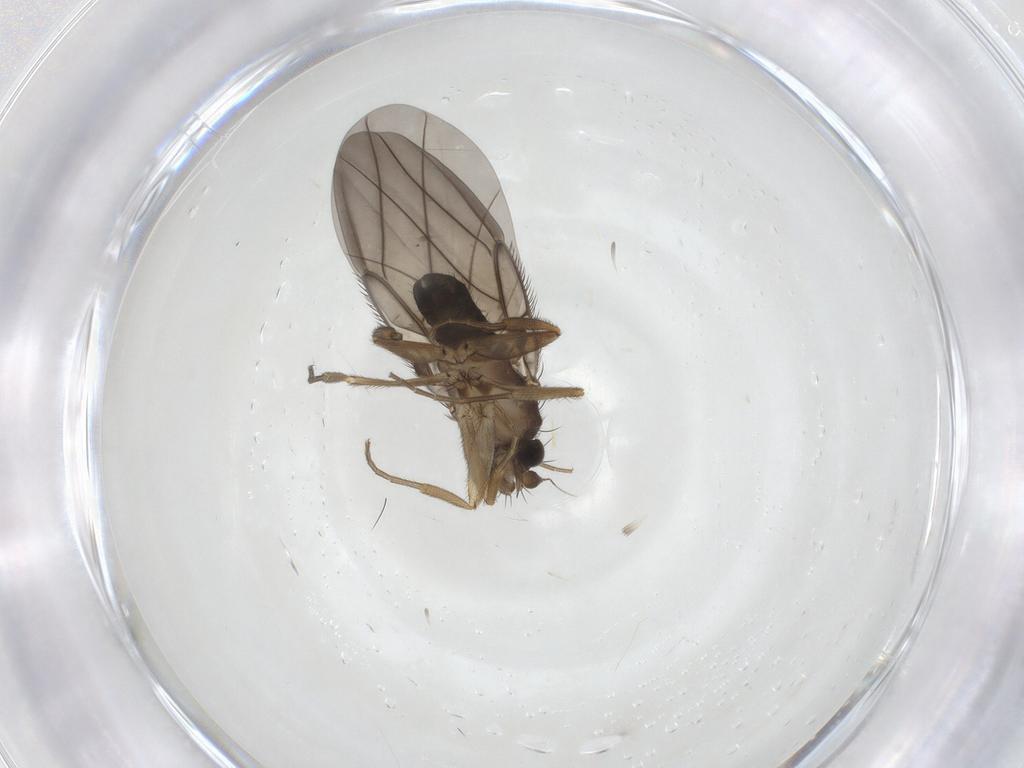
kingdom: Animalia
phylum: Arthropoda
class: Insecta
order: Diptera
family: Phoridae
